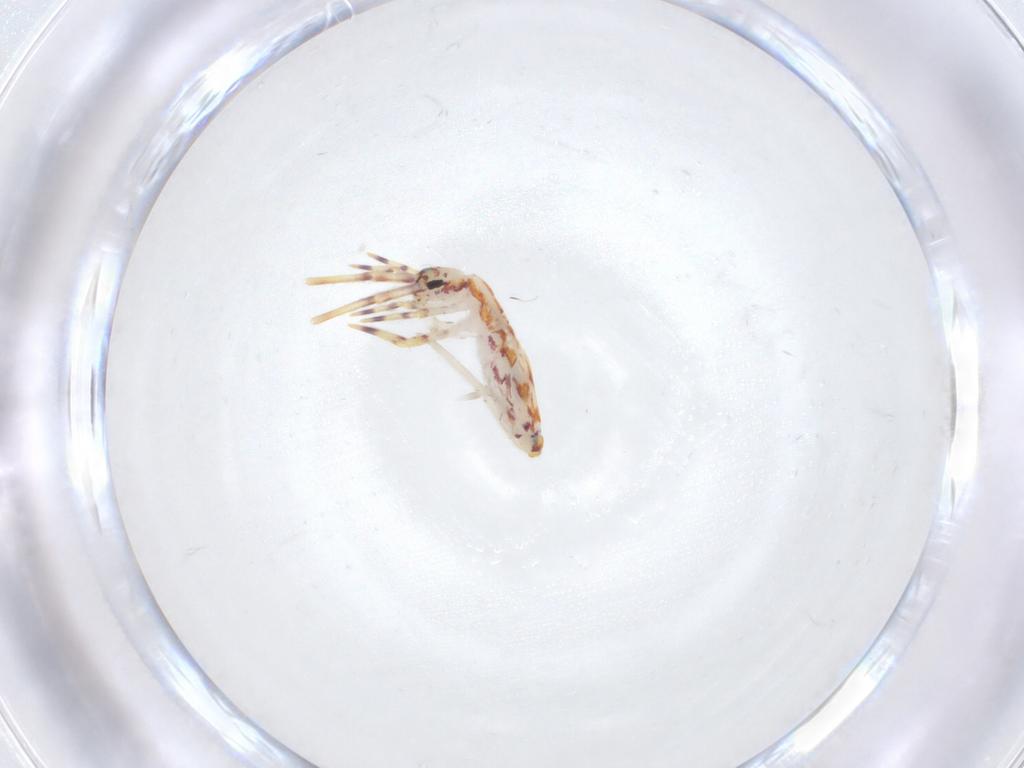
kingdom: Animalia
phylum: Arthropoda
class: Collembola
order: Entomobryomorpha
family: Entomobryidae
